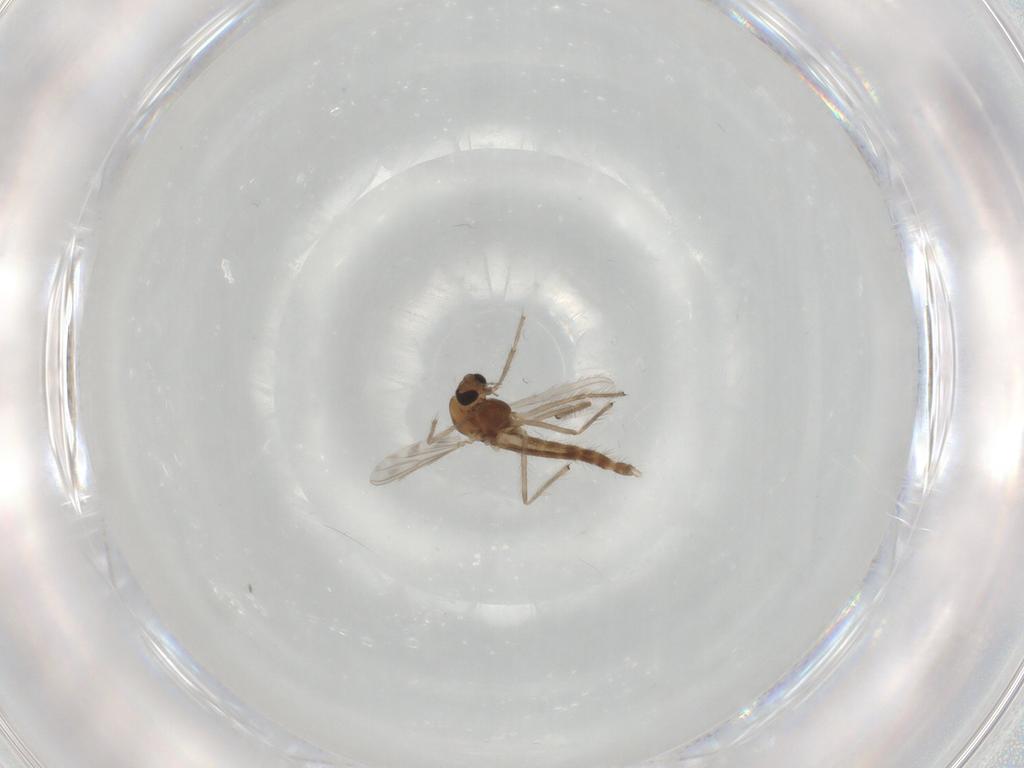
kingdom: Animalia
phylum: Arthropoda
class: Insecta
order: Diptera
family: Chironomidae
